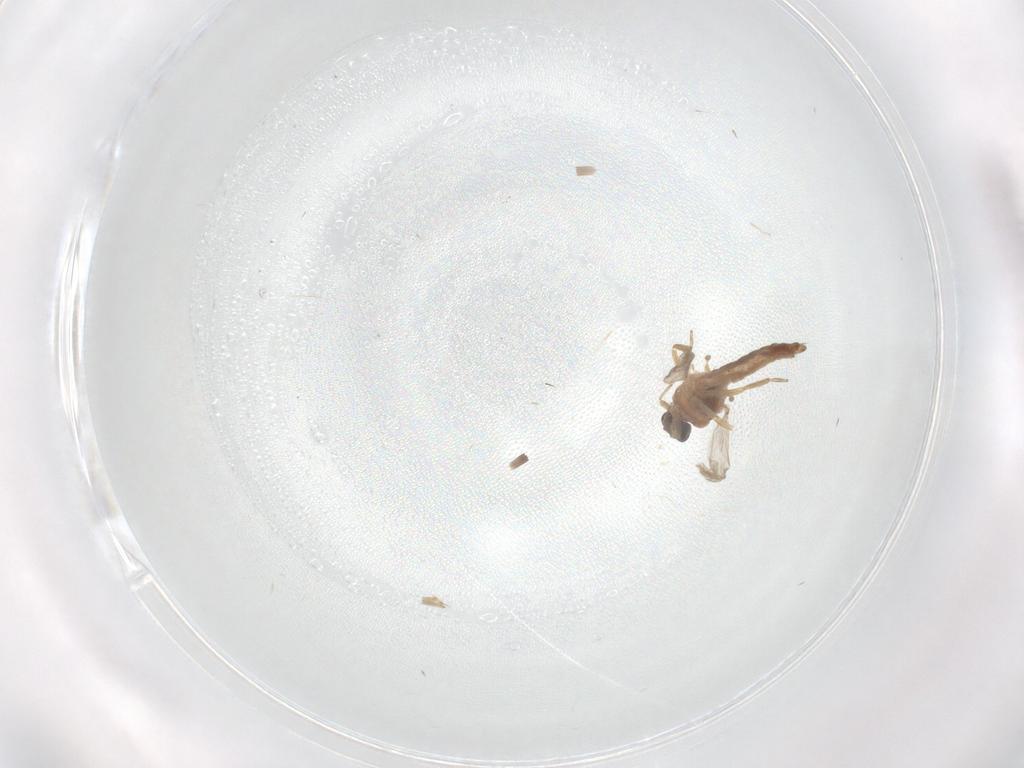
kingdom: Animalia
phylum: Arthropoda
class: Insecta
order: Diptera
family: Chironomidae
